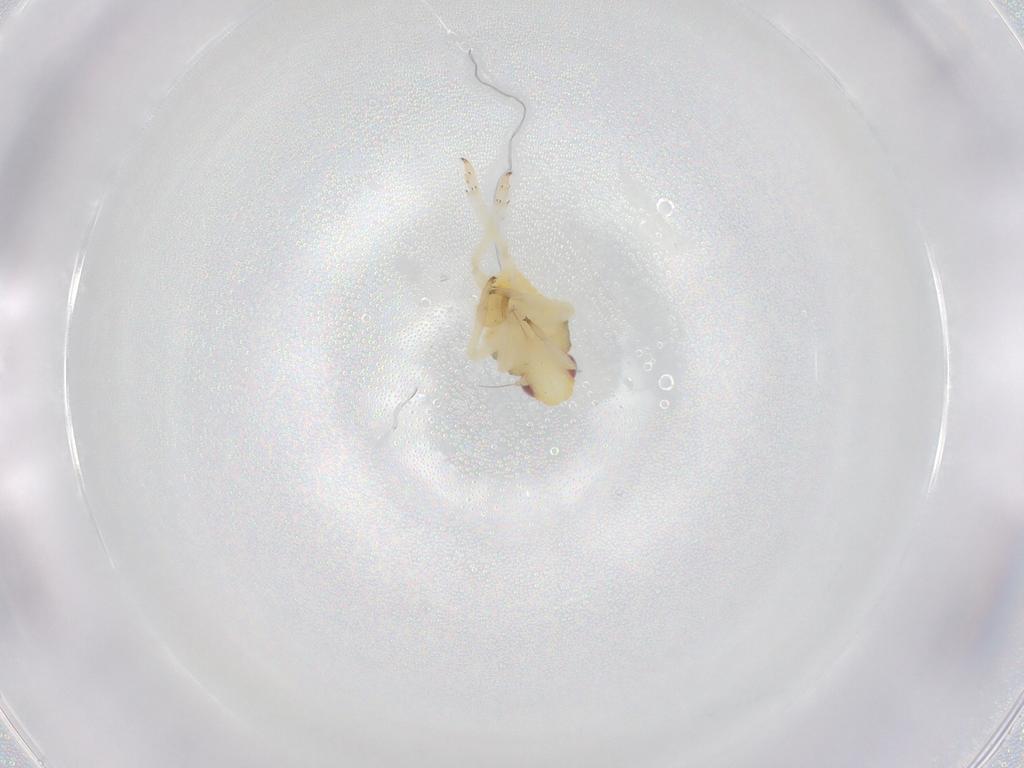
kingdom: Animalia
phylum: Arthropoda
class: Insecta
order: Hemiptera
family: Caliscelidae
